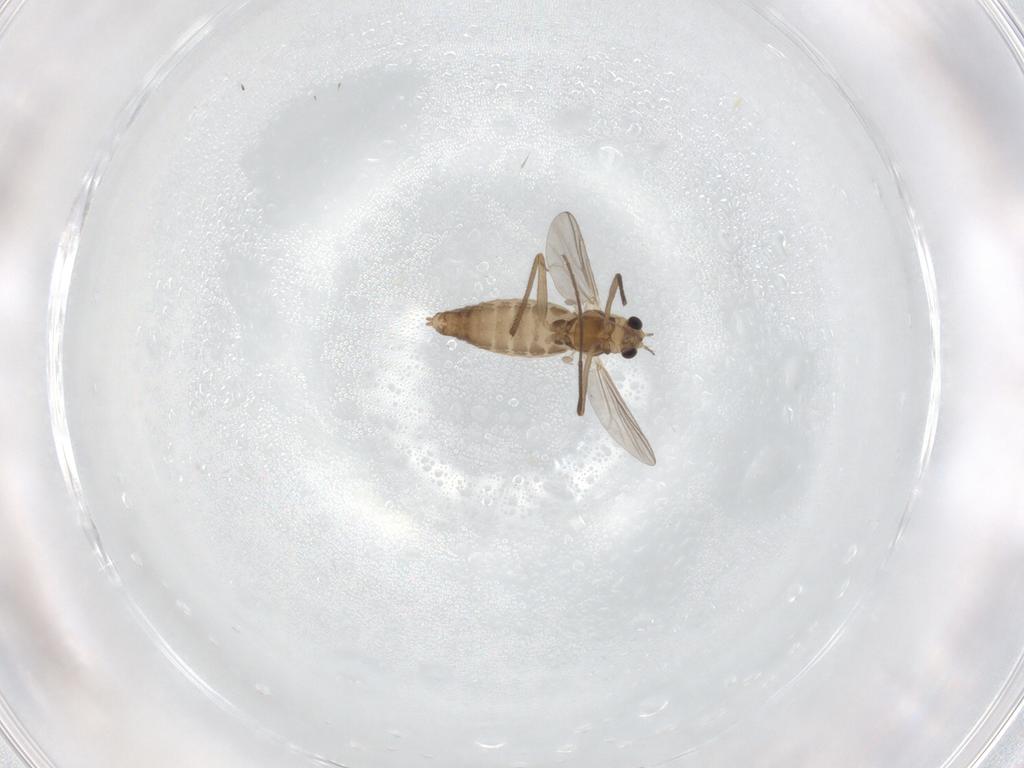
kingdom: Animalia
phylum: Arthropoda
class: Insecta
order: Diptera
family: Chironomidae
